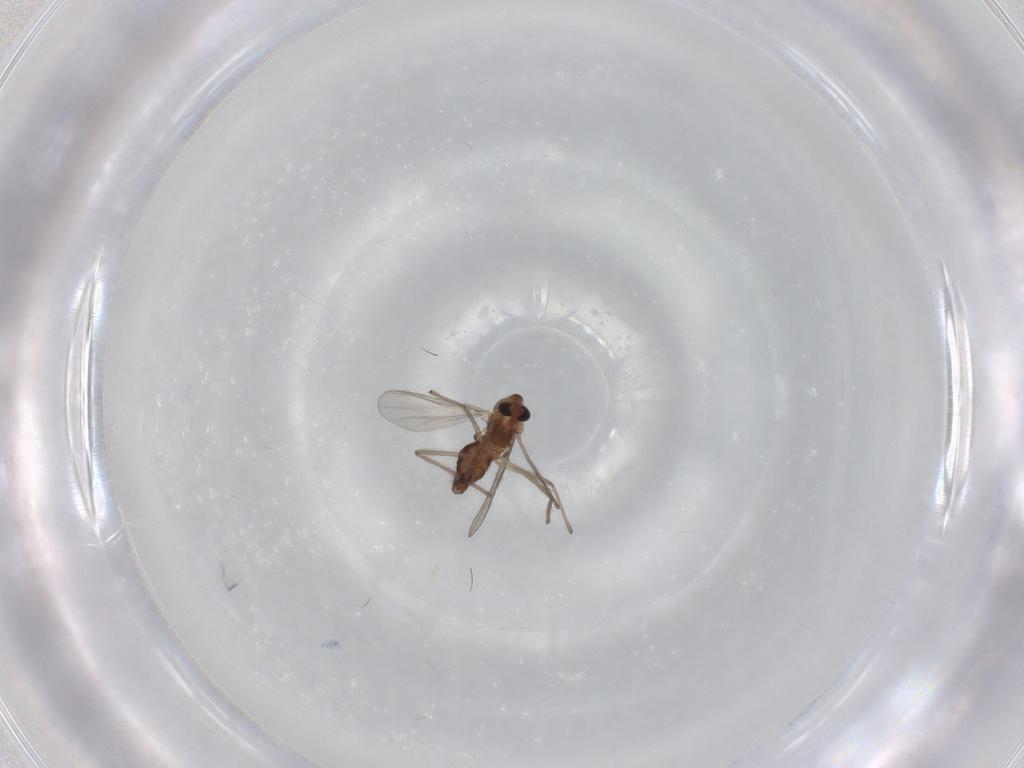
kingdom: Animalia
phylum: Arthropoda
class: Insecta
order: Diptera
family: Chironomidae
